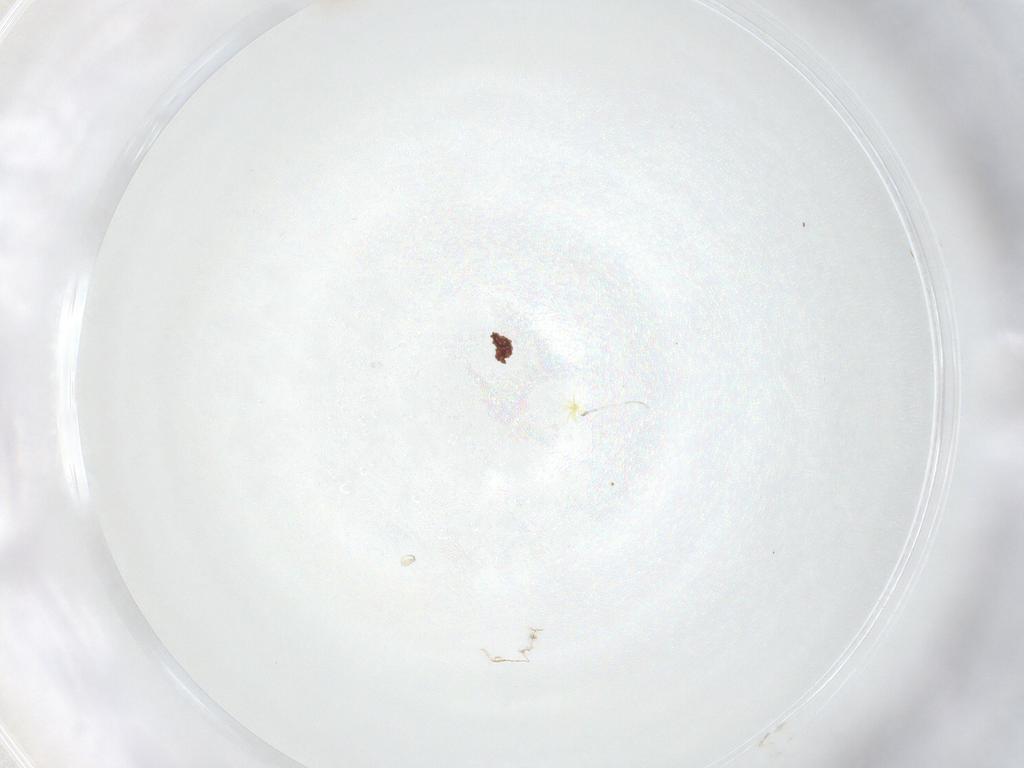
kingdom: Animalia
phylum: Arthropoda
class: Arachnida
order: Mesostigmata
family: Zerconidae
